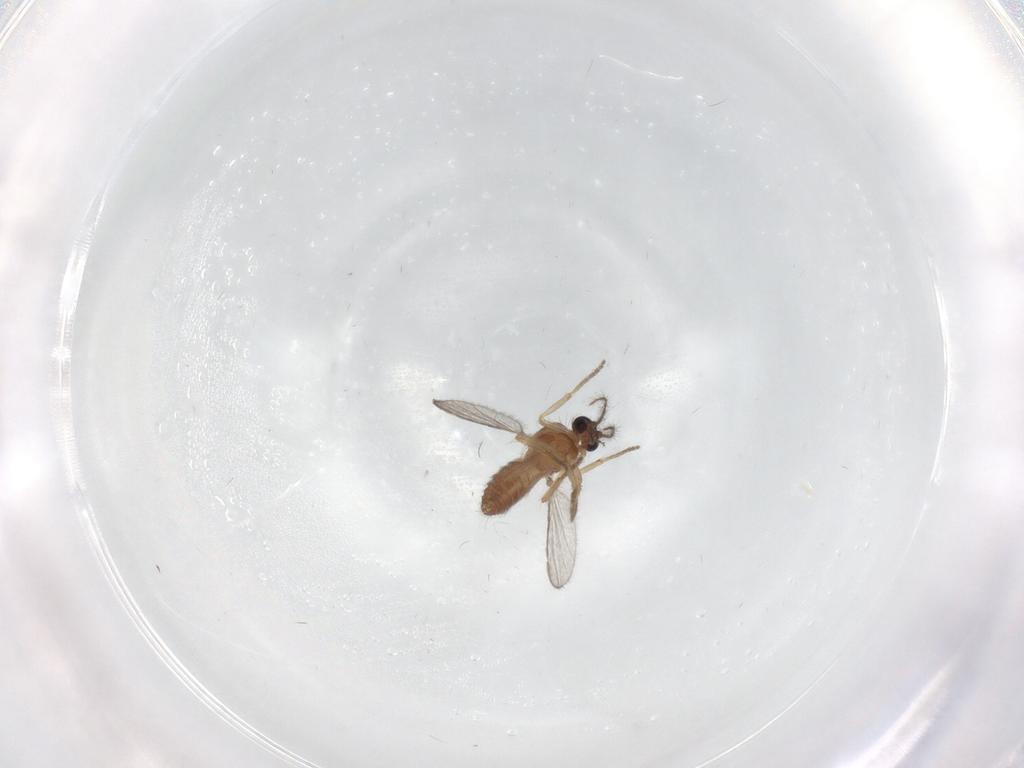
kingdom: Animalia
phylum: Arthropoda
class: Insecta
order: Diptera
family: Ceratopogonidae
